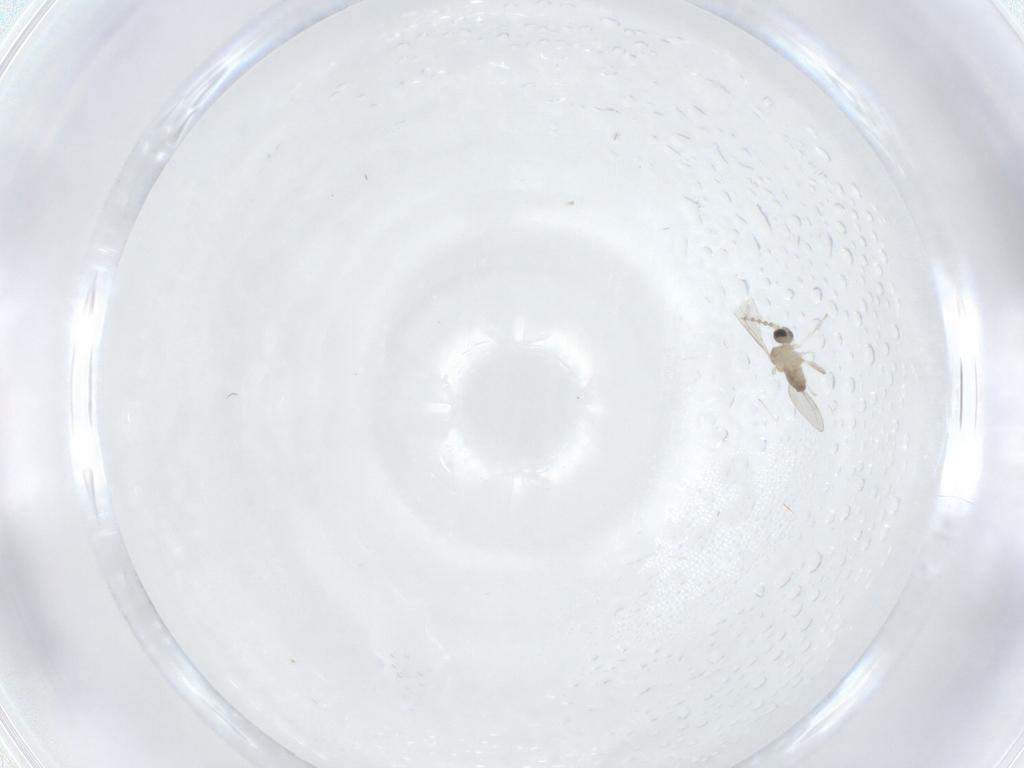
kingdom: Animalia
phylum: Arthropoda
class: Insecta
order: Diptera
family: Cecidomyiidae
